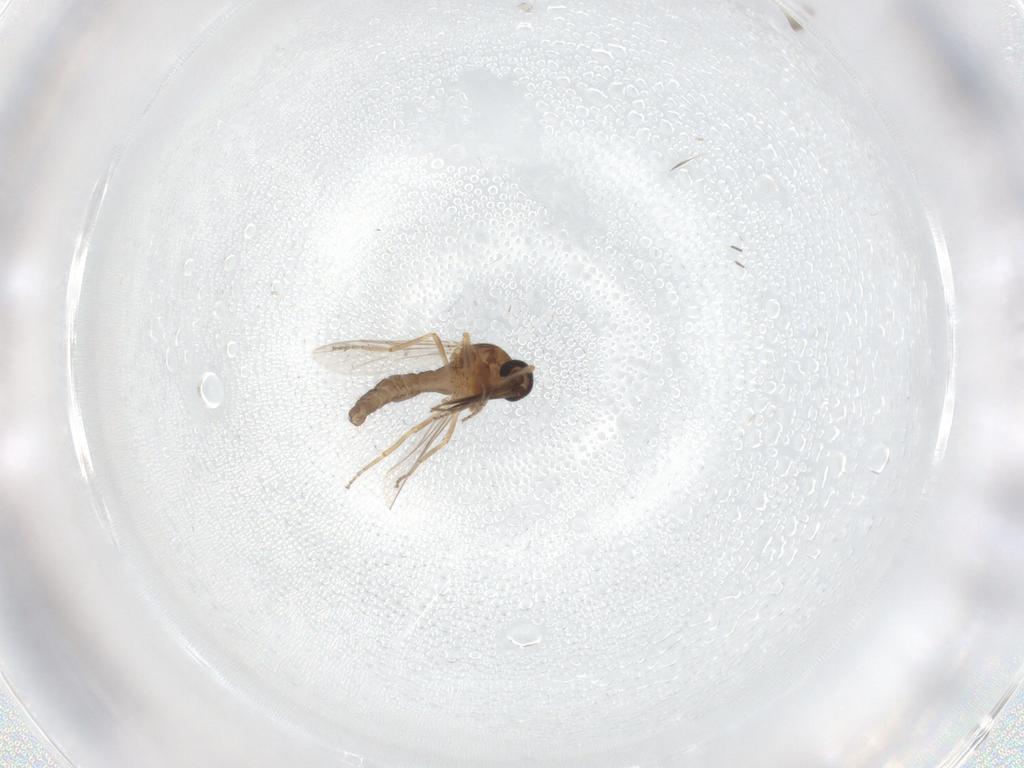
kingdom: Animalia
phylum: Arthropoda
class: Insecta
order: Diptera
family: Ceratopogonidae
